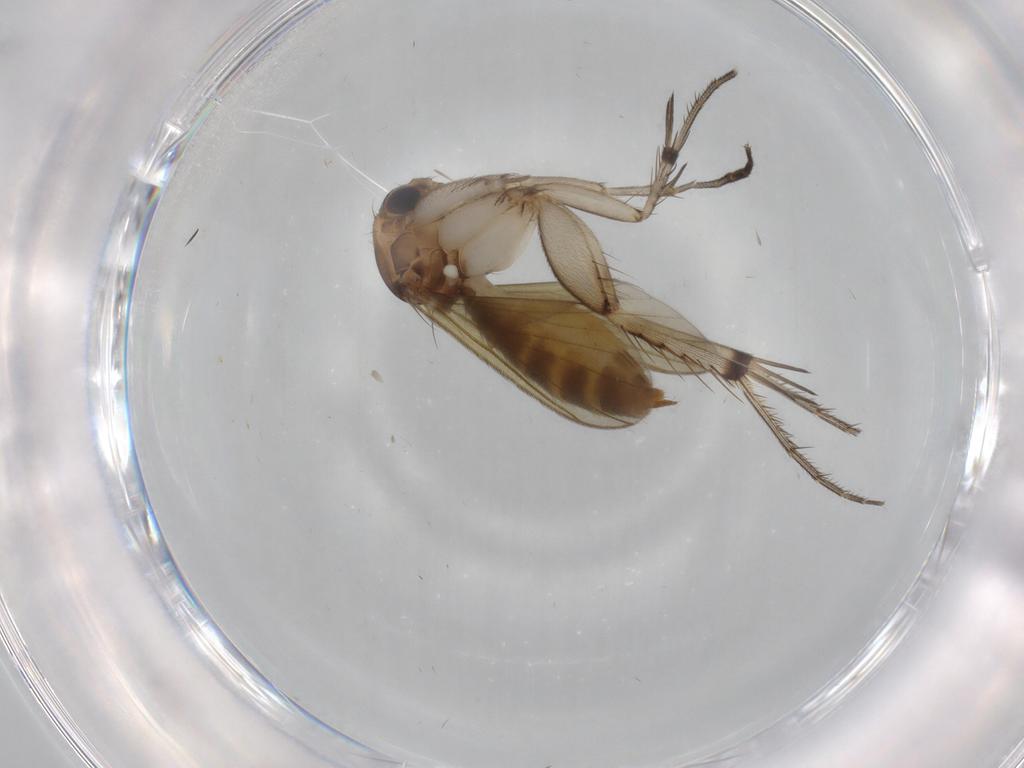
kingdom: Animalia
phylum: Arthropoda
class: Insecta
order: Diptera
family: Mycetophilidae
